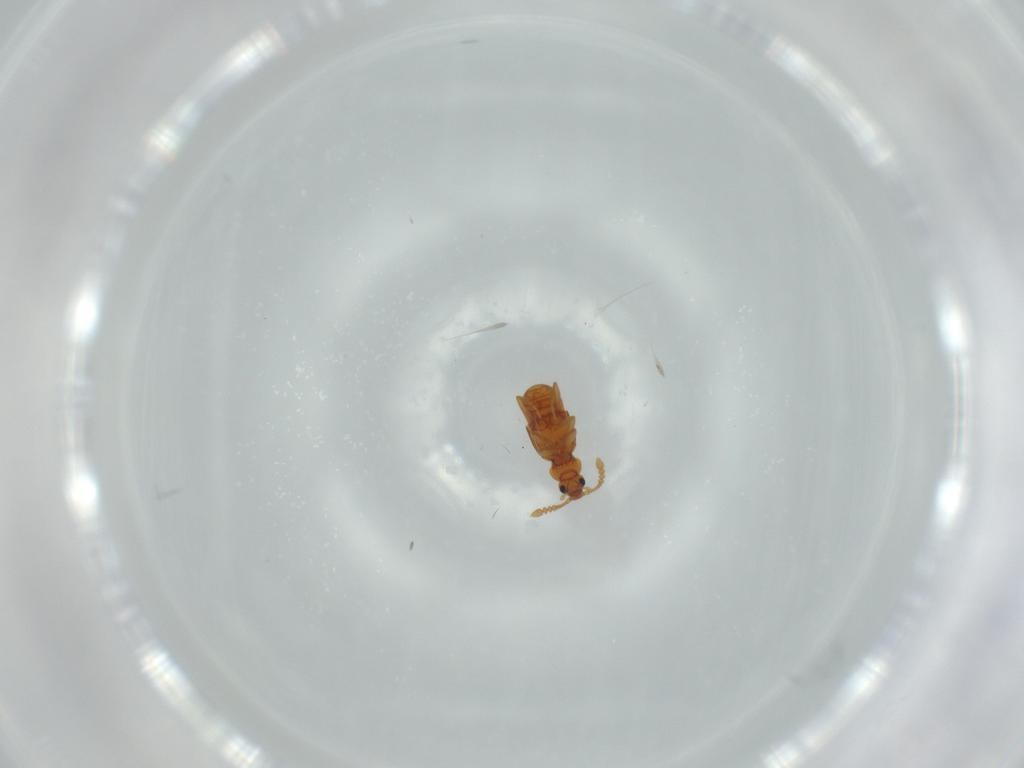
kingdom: Animalia
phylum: Arthropoda
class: Insecta
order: Coleoptera
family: Staphylinidae
